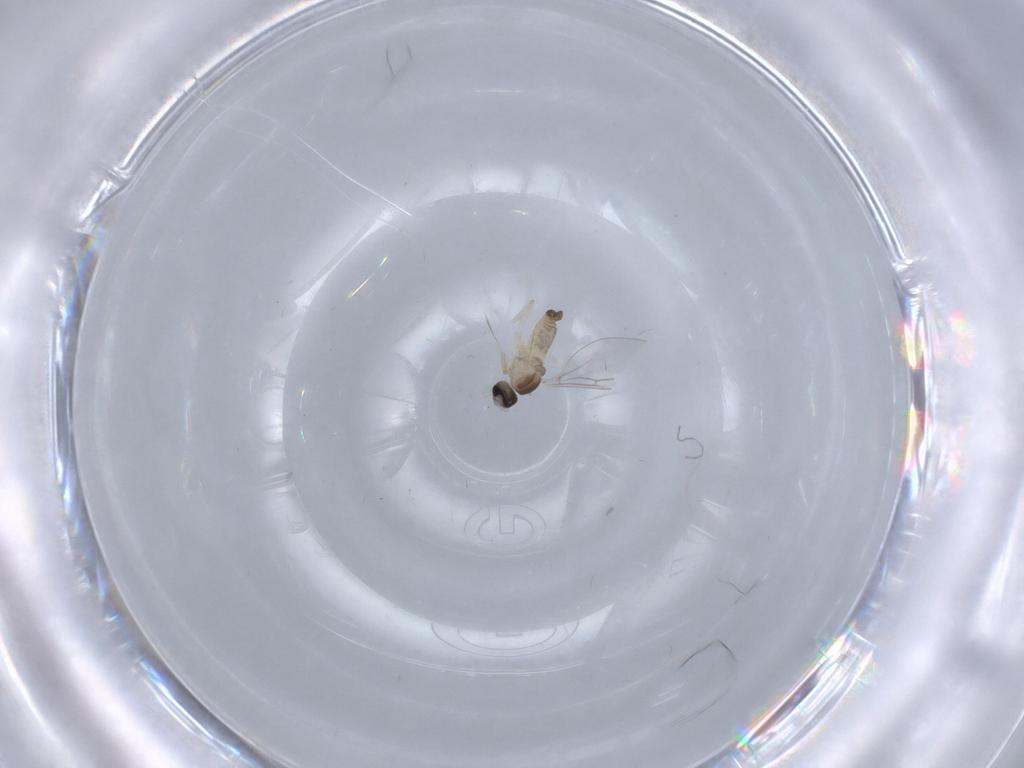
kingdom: Animalia
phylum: Arthropoda
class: Insecta
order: Diptera
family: Cecidomyiidae
